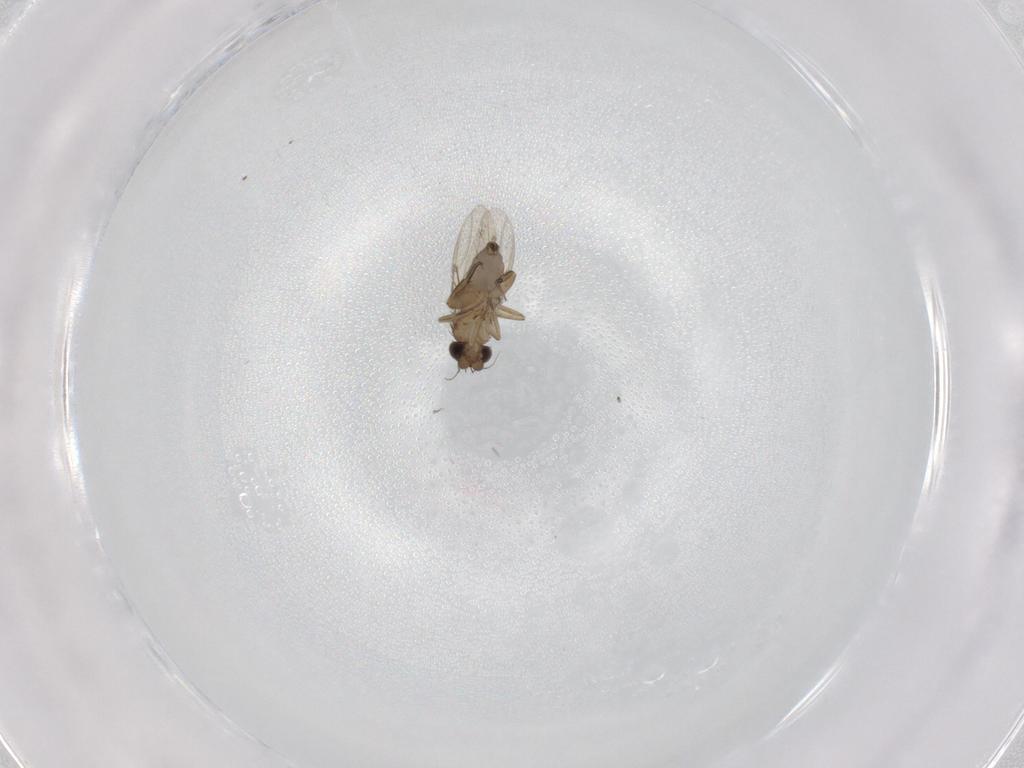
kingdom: Animalia
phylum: Arthropoda
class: Insecta
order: Diptera
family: Phoridae
